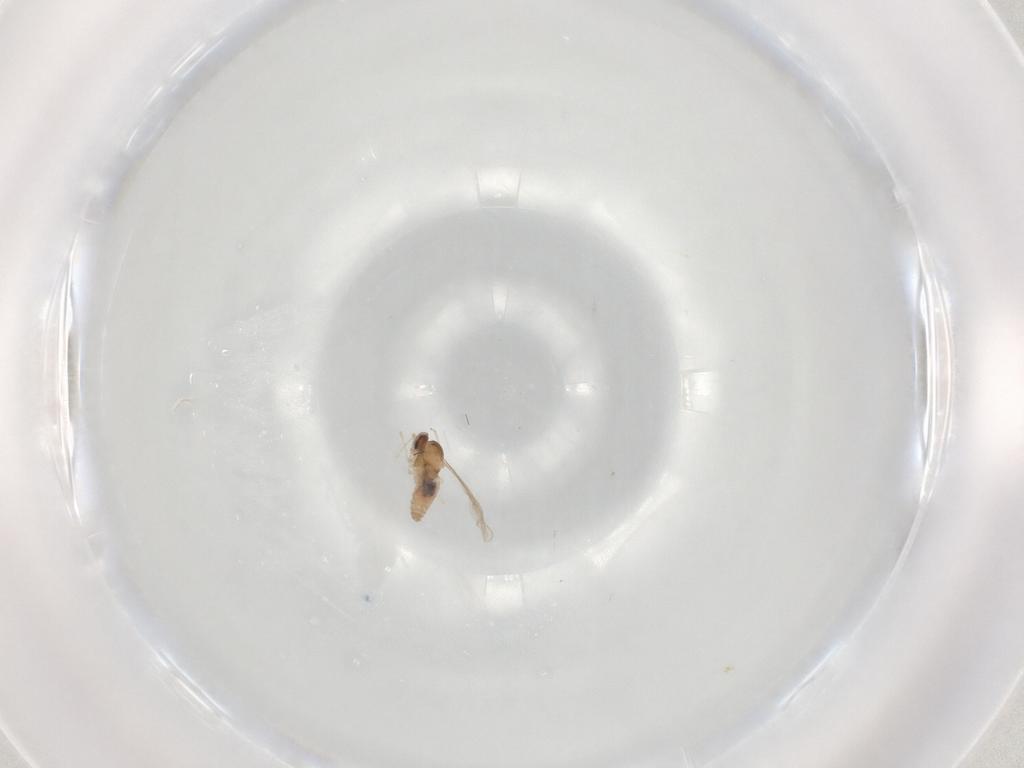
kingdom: Animalia
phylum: Arthropoda
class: Insecta
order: Diptera
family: Cecidomyiidae
